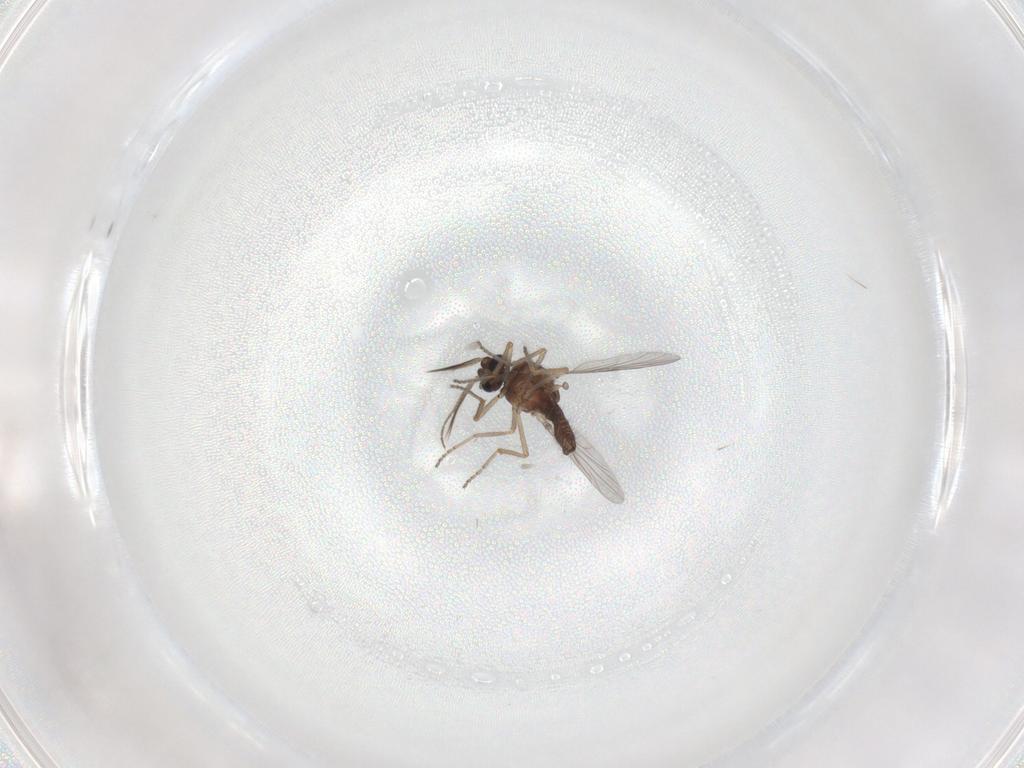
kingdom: Animalia
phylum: Arthropoda
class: Insecta
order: Diptera
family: Ceratopogonidae
